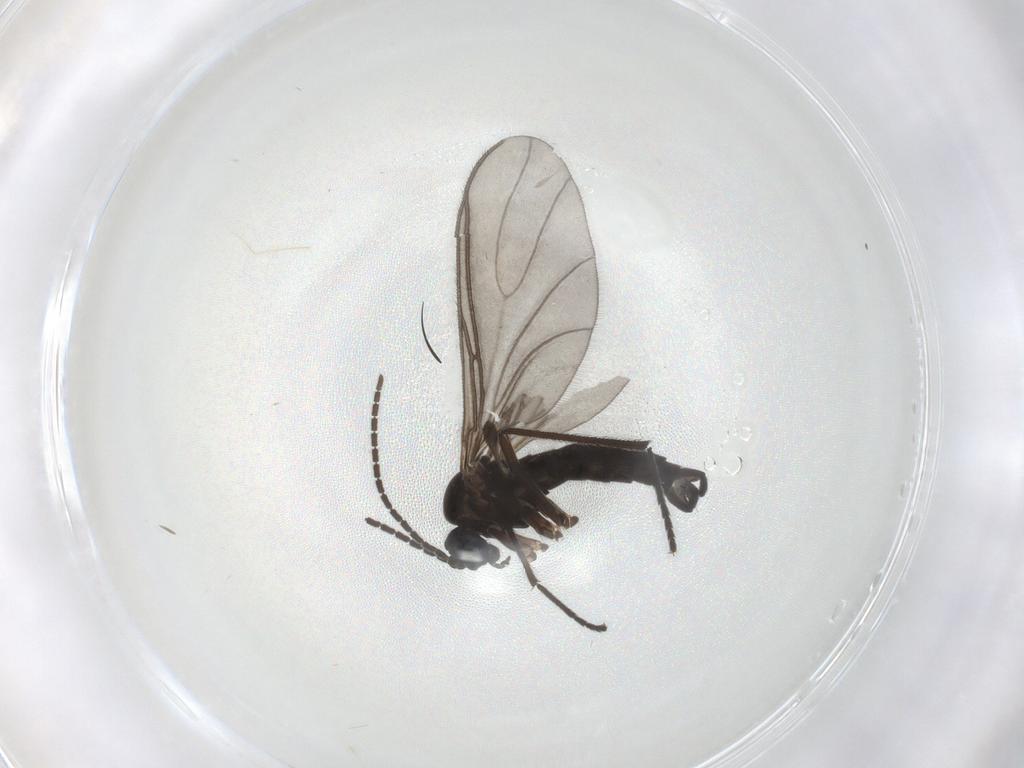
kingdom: Animalia
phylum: Arthropoda
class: Insecta
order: Diptera
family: Sciaridae
